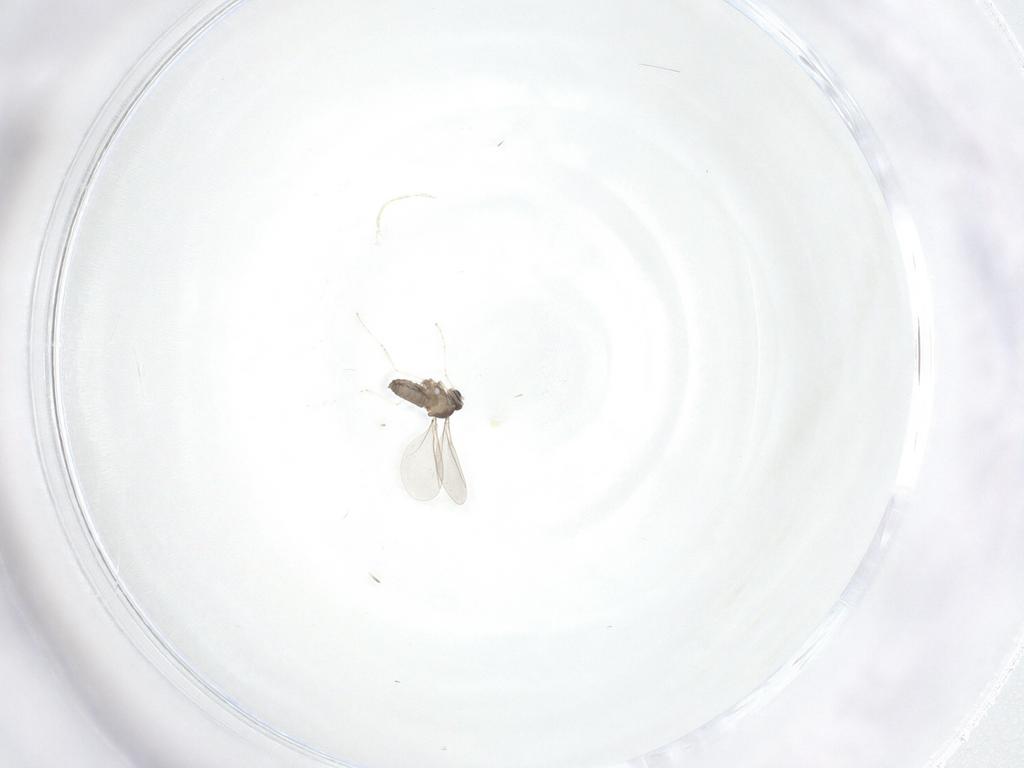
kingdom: Animalia
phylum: Arthropoda
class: Insecta
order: Diptera
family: Cecidomyiidae
